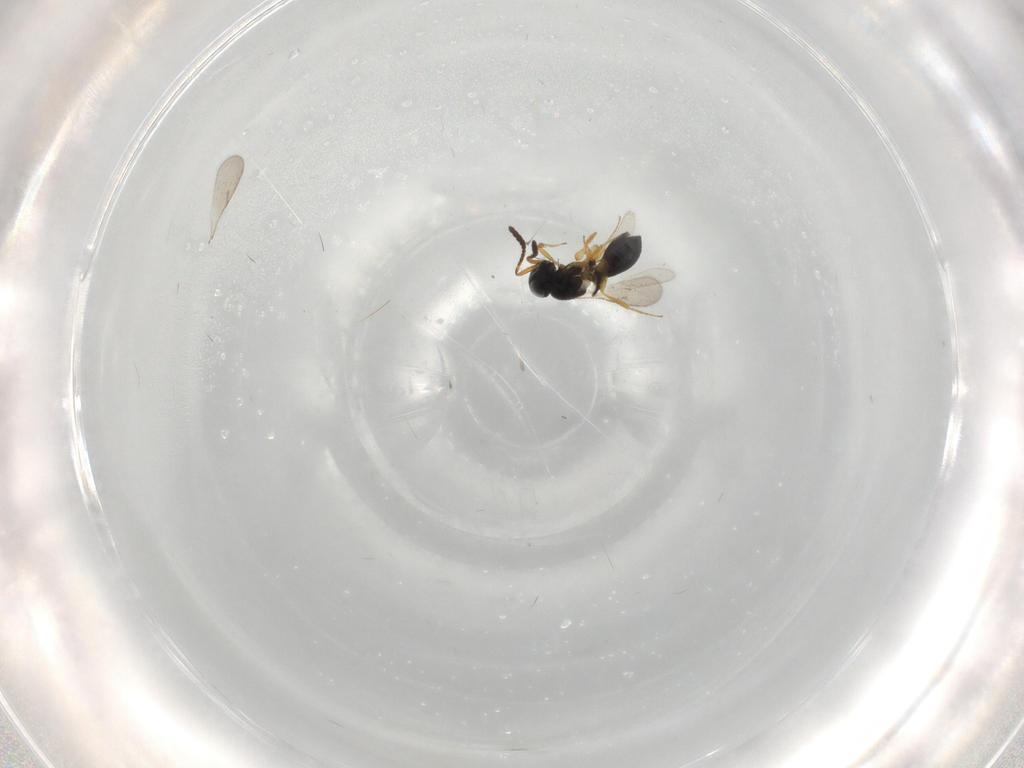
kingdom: Animalia
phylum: Arthropoda
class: Insecta
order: Hymenoptera
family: Scelionidae
